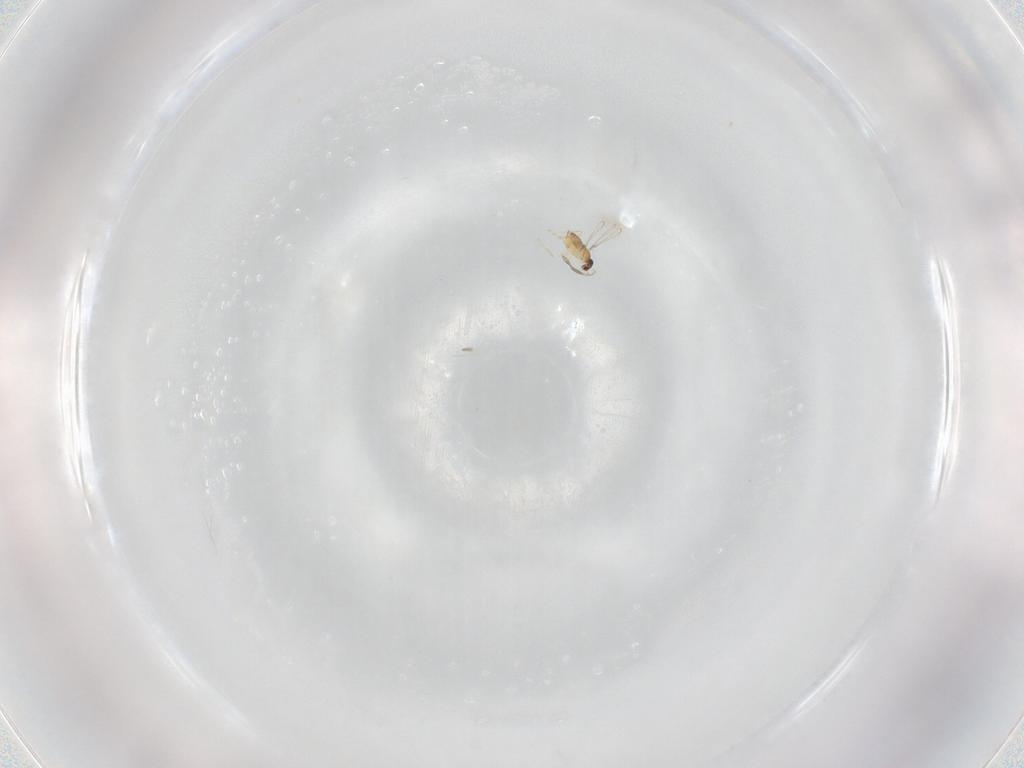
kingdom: Animalia
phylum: Arthropoda
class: Insecta
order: Hymenoptera
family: Mymaridae
